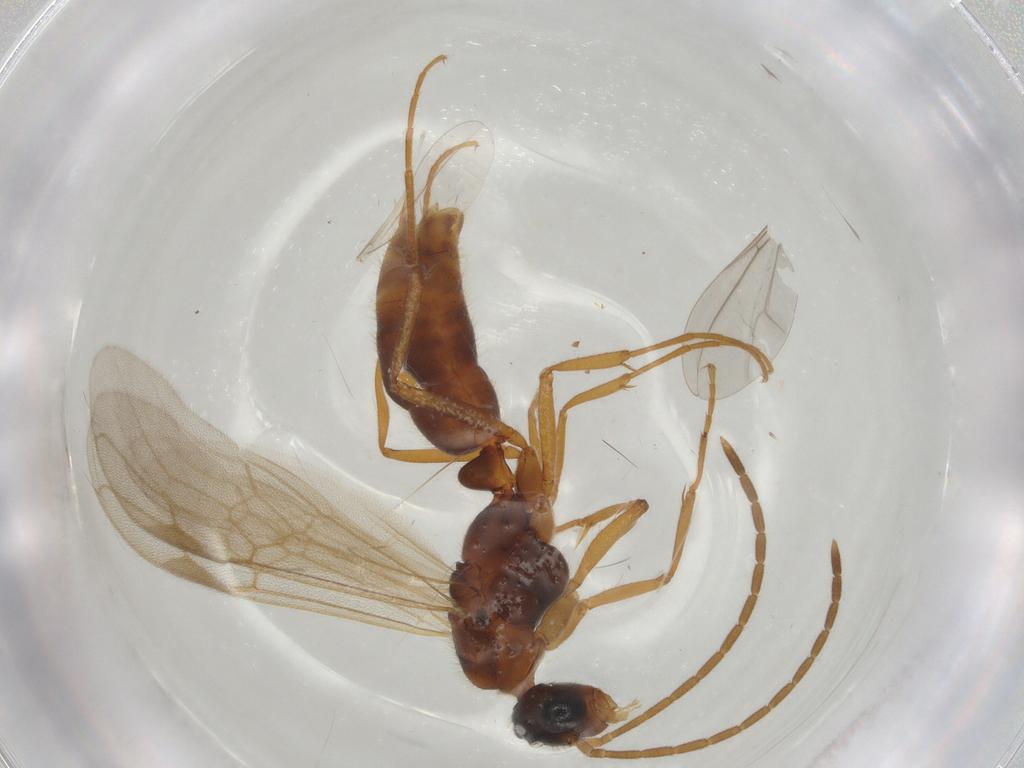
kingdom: Animalia
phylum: Arthropoda
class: Insecta
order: Hymenoptera
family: Formicidae
